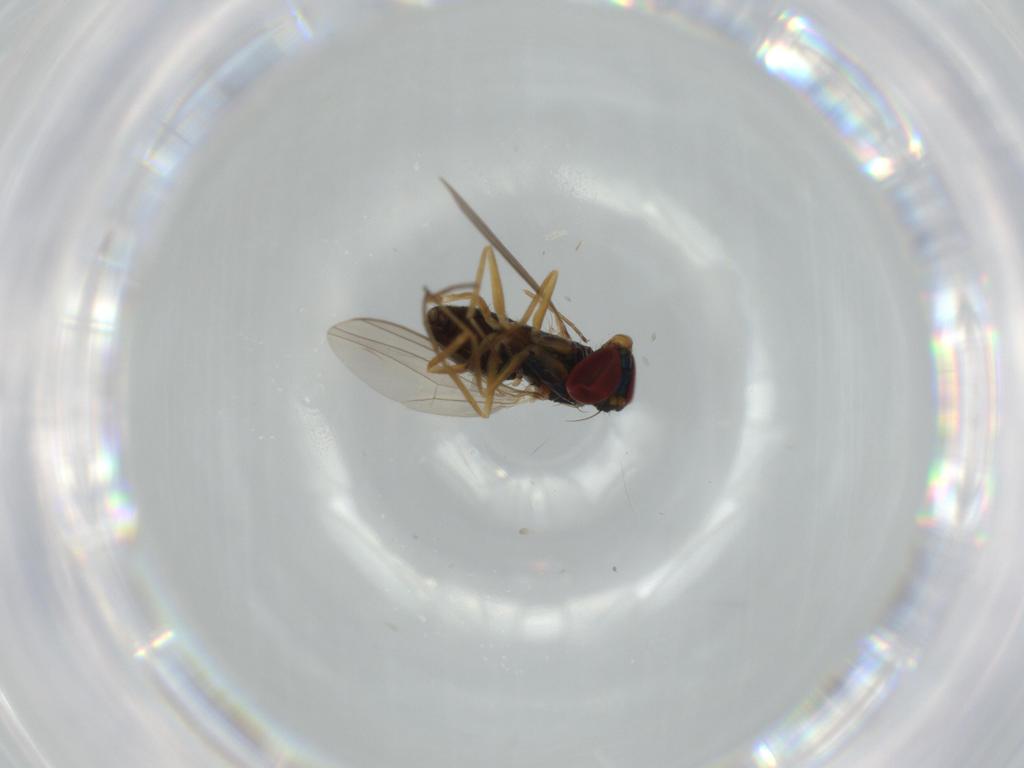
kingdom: Animalia
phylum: Arthropoda
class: Insecta
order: Diptera
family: Dolichopodidae
